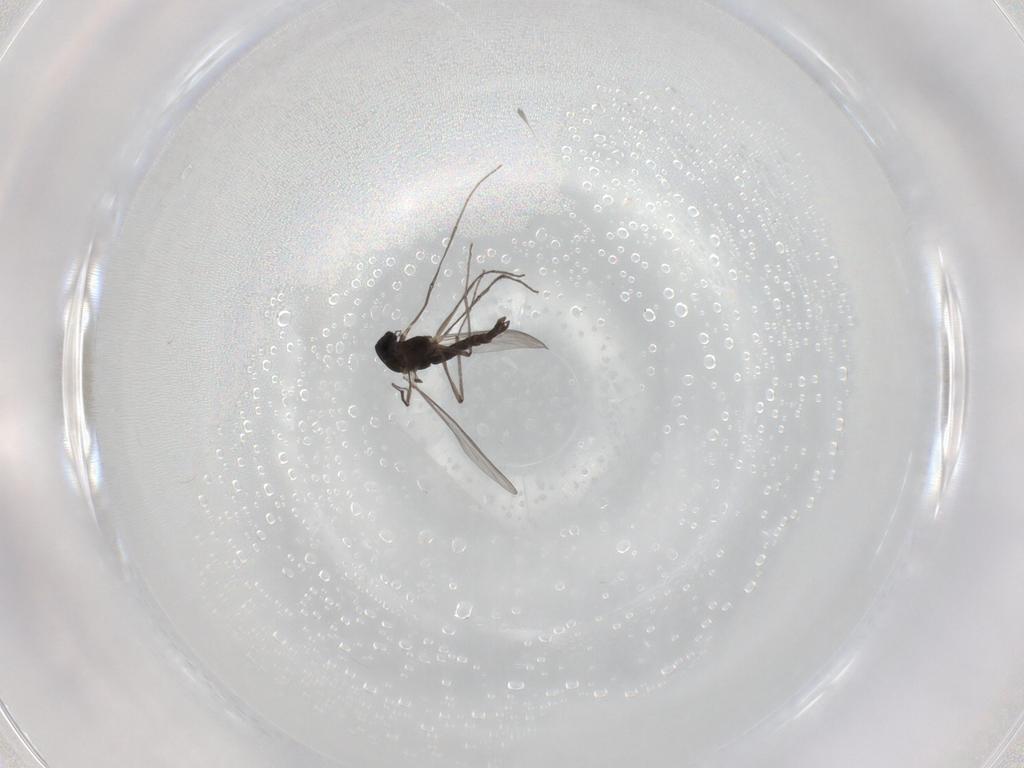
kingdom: Animalia
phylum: Arthropoda
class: Insecta
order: Diptera
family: Chironomidae
